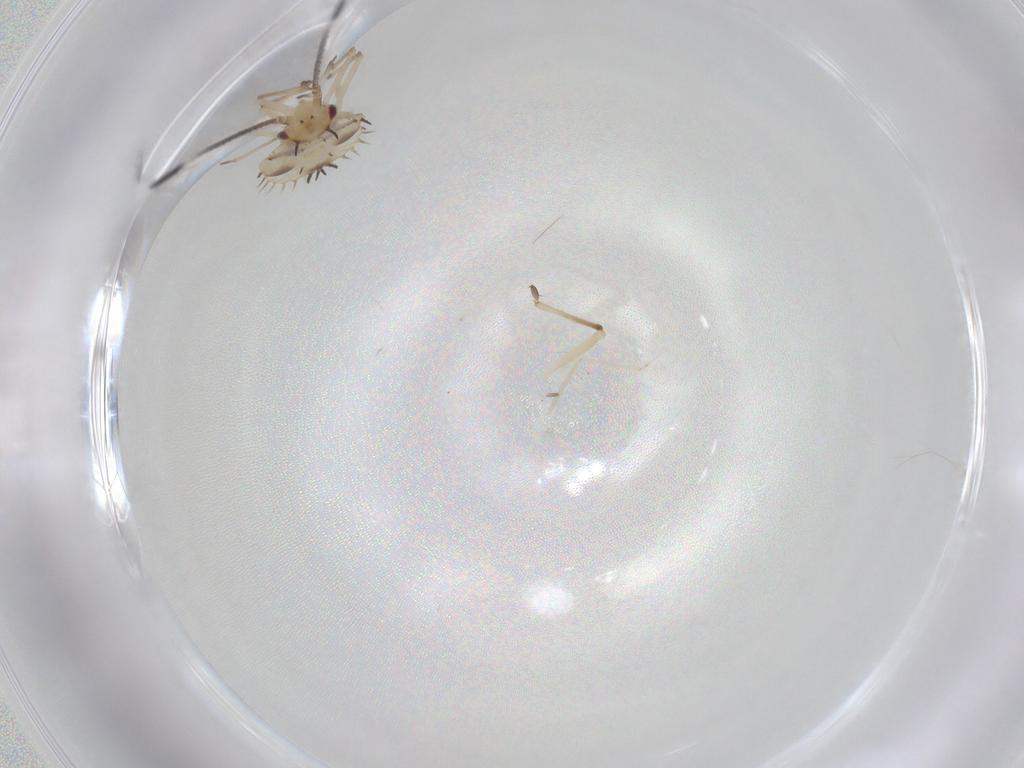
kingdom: Animalia
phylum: Arthropoda
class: Insecta
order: Hemiptera
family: Tingidae
